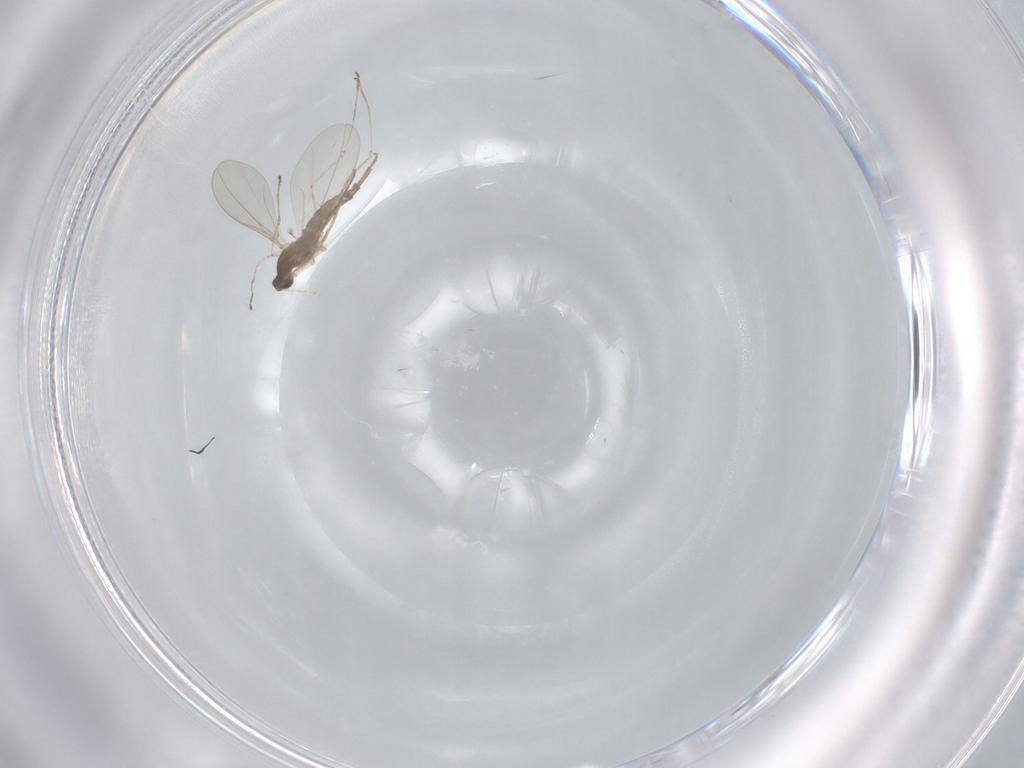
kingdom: Animalia
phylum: Arthropoda
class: Insecta
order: Diptera
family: Cecidomyiidae
